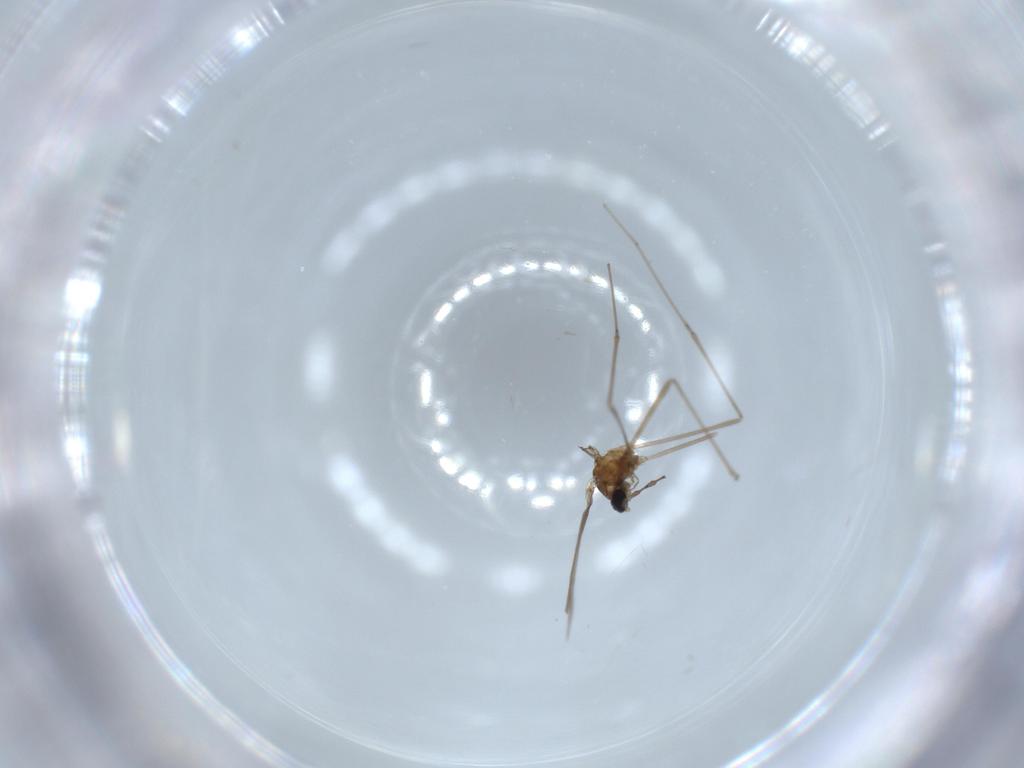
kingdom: Animalia
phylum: Arthropoda
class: Insecta
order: Diptera
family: Cecidomyiidae
